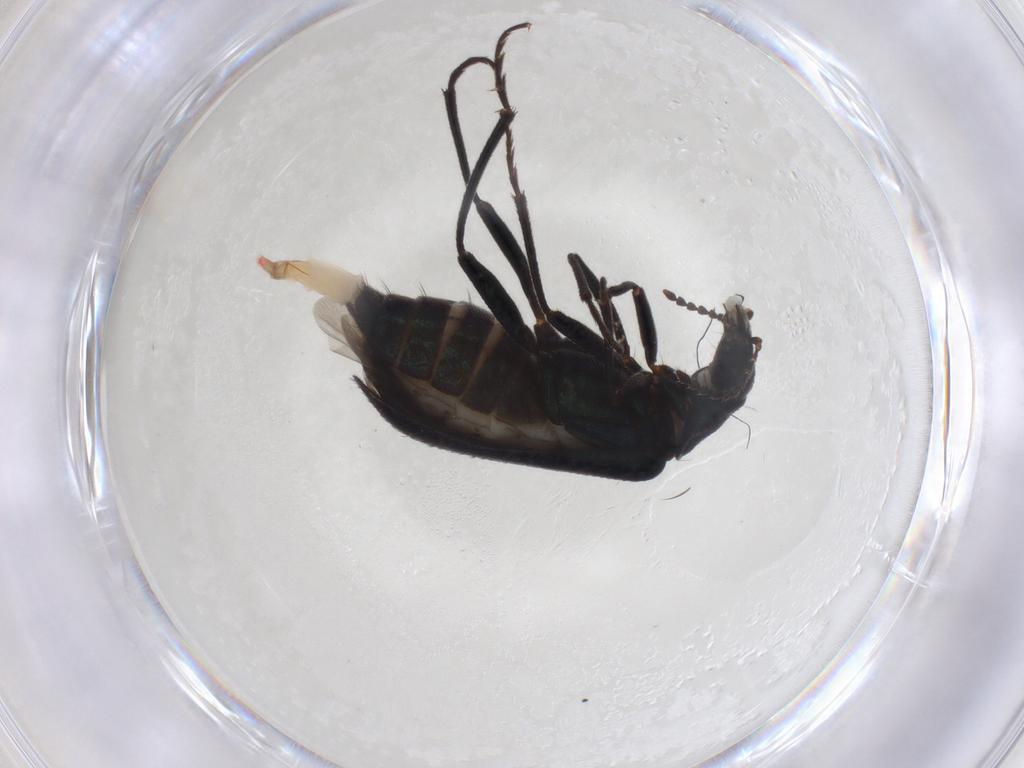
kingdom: Animalia
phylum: Arthropoda
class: Insecta
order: Coleoptera
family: Melyridae
